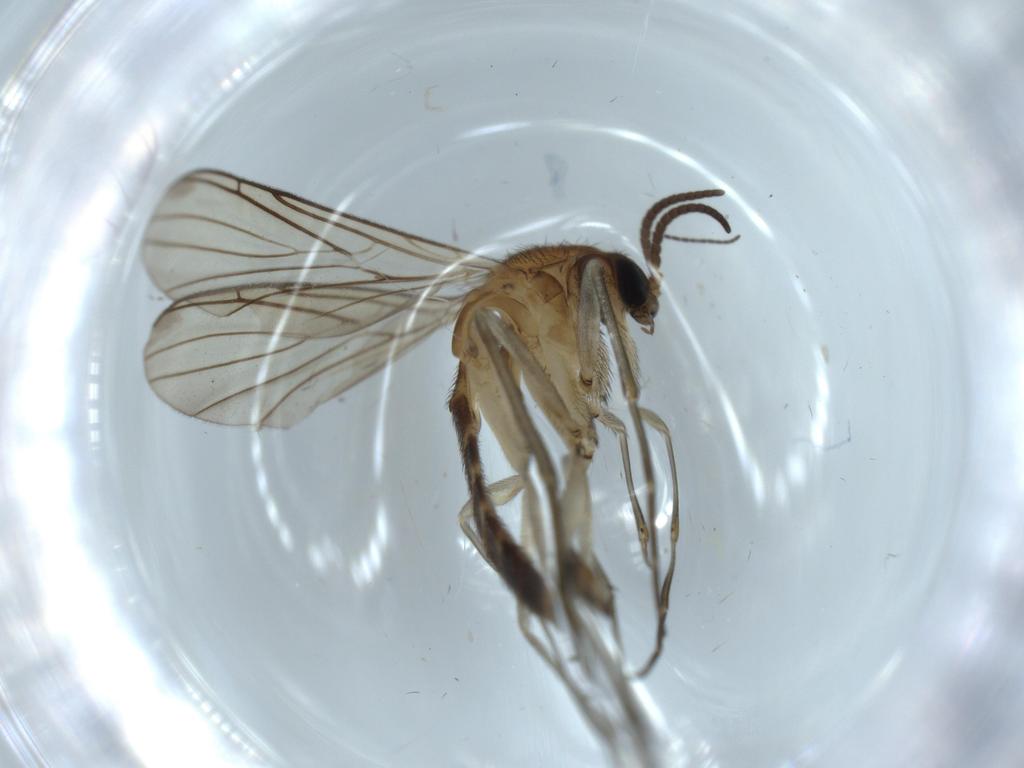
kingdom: Animalia
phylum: Arthropoda
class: Insecta
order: Diptera
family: Keroplatidae
